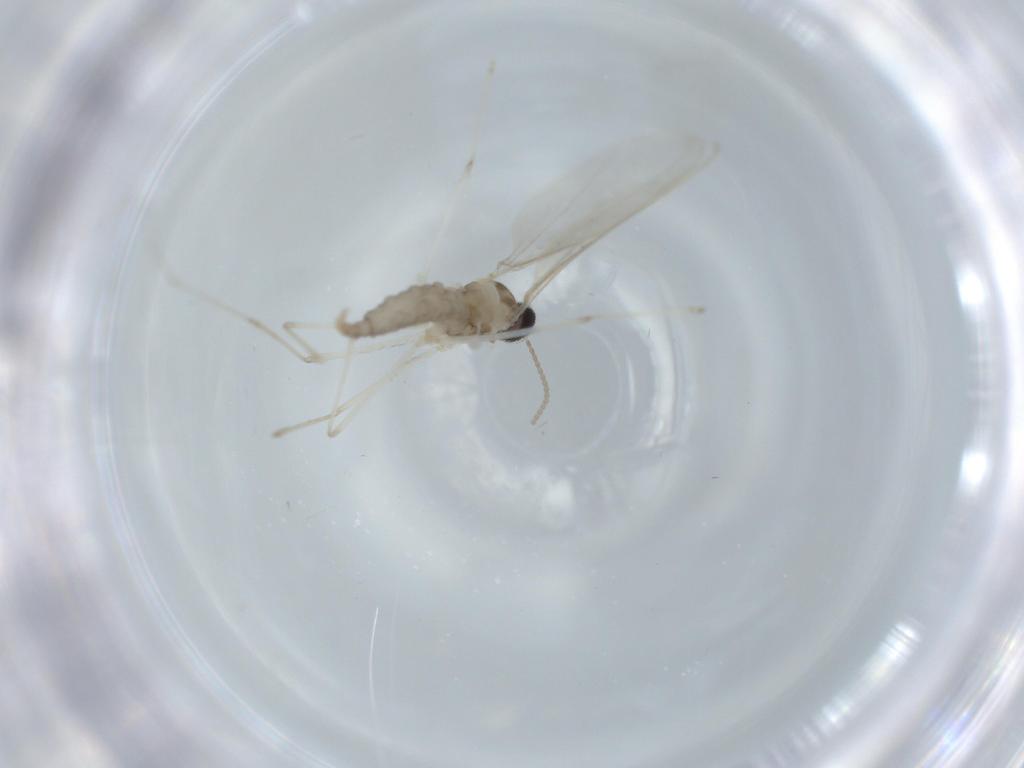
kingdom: Animalia
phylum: Arthropoda
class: Insecta
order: Diptera
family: Cecidomyiidae
